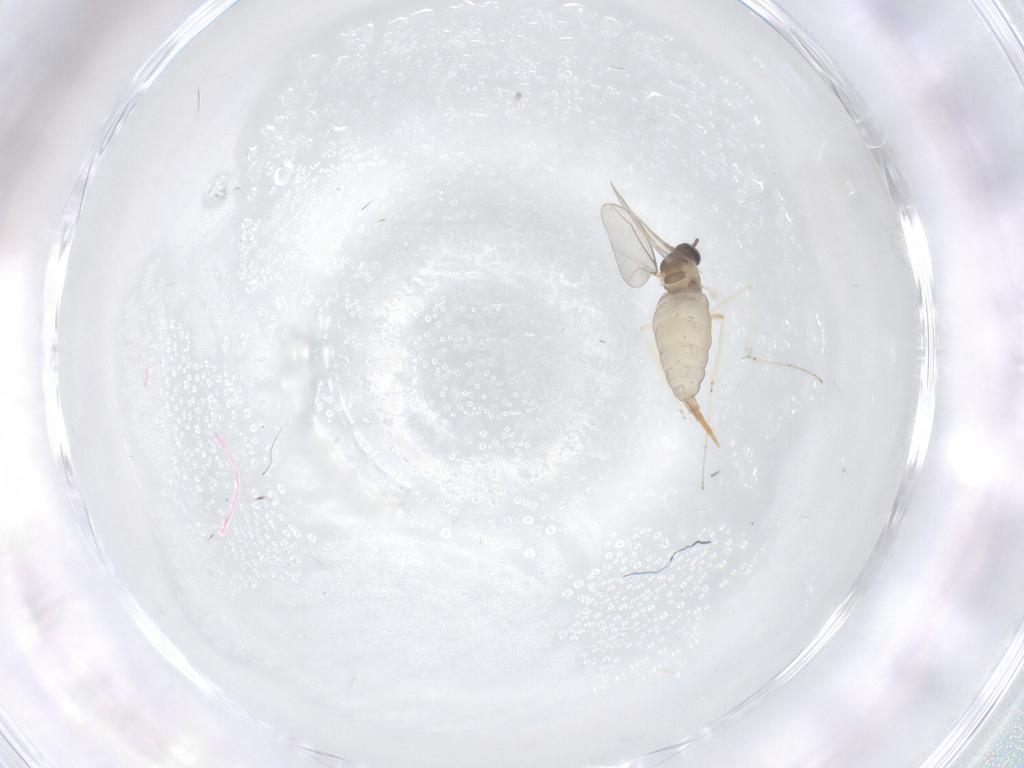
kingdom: Animalia
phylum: Arthropoda
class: Insecta
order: Diptera
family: Cecidomyiidae
